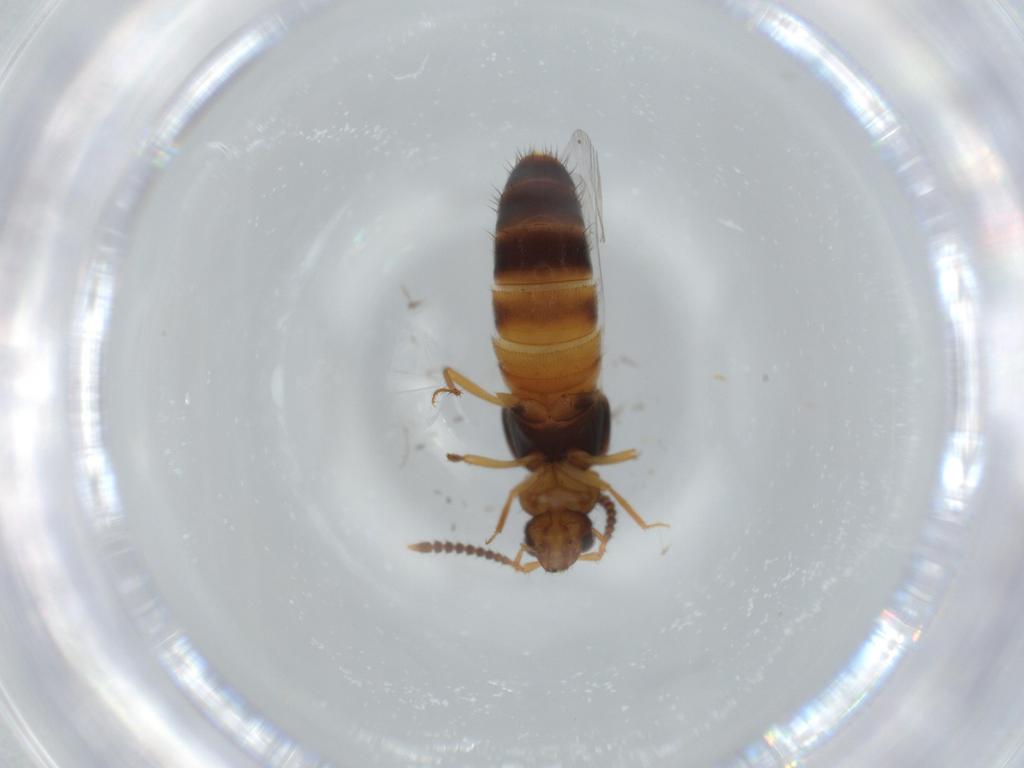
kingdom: Animalia
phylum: Arthropoda
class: Insecta
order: Coleoptera
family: Staphylinidae
